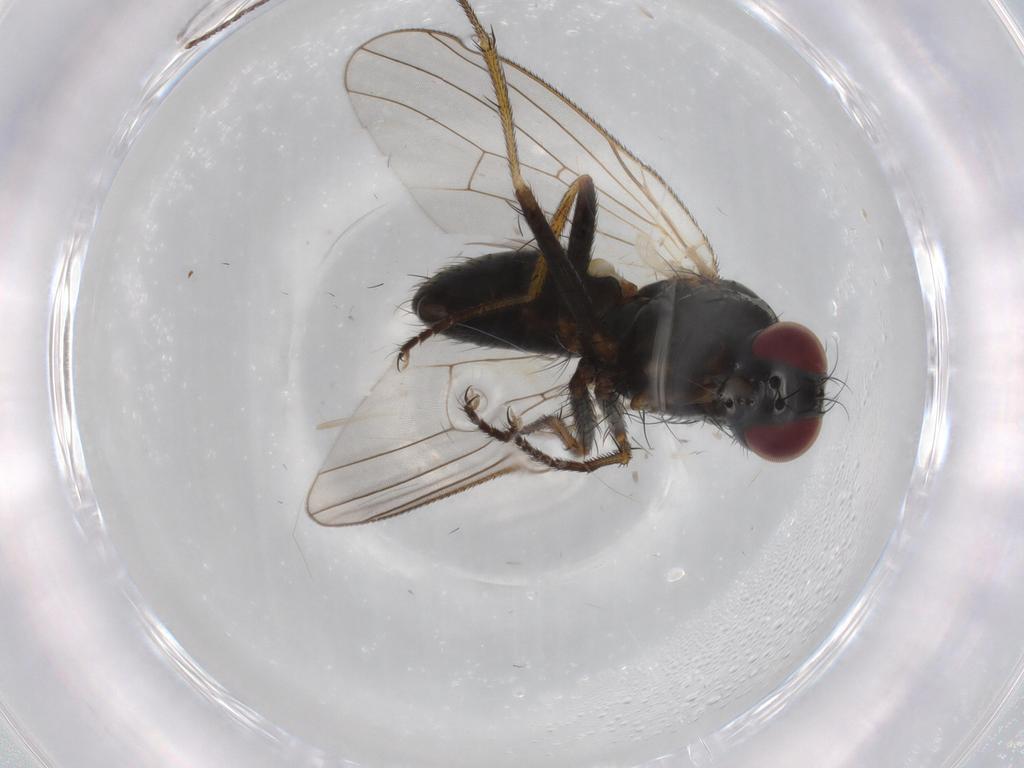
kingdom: Animalia
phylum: Arthropoda
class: Insecta
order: Diptera
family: Limoniidae
